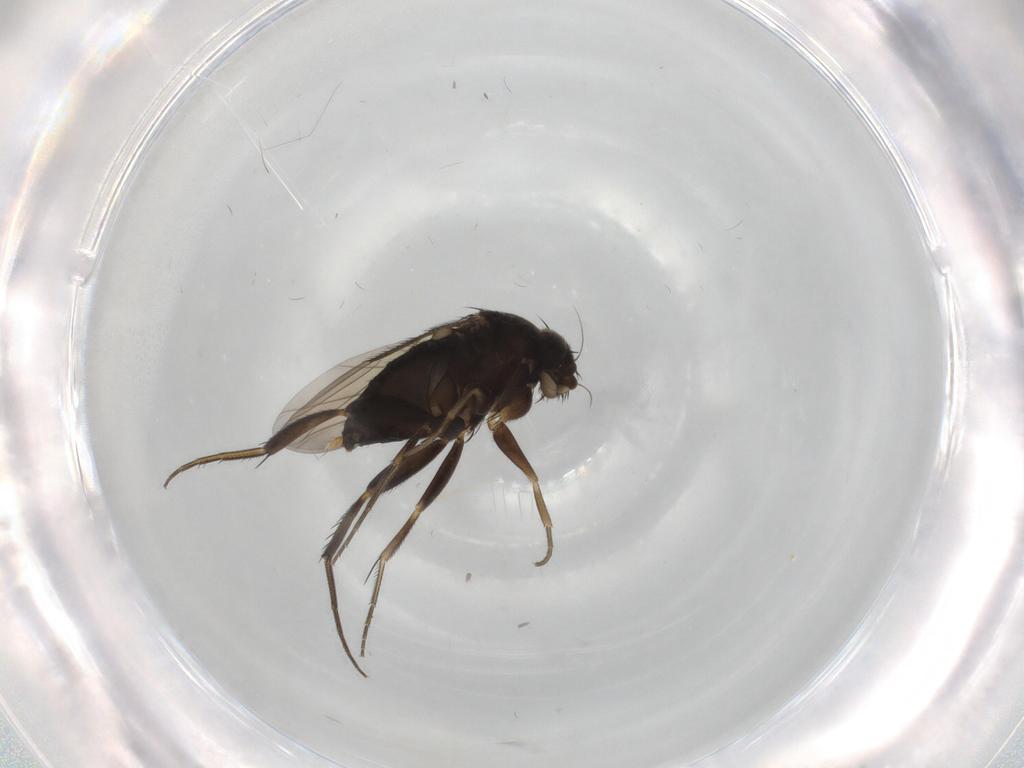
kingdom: Animalia
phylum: Arthropoda
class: Insecta
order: Diptera
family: Phoridae
